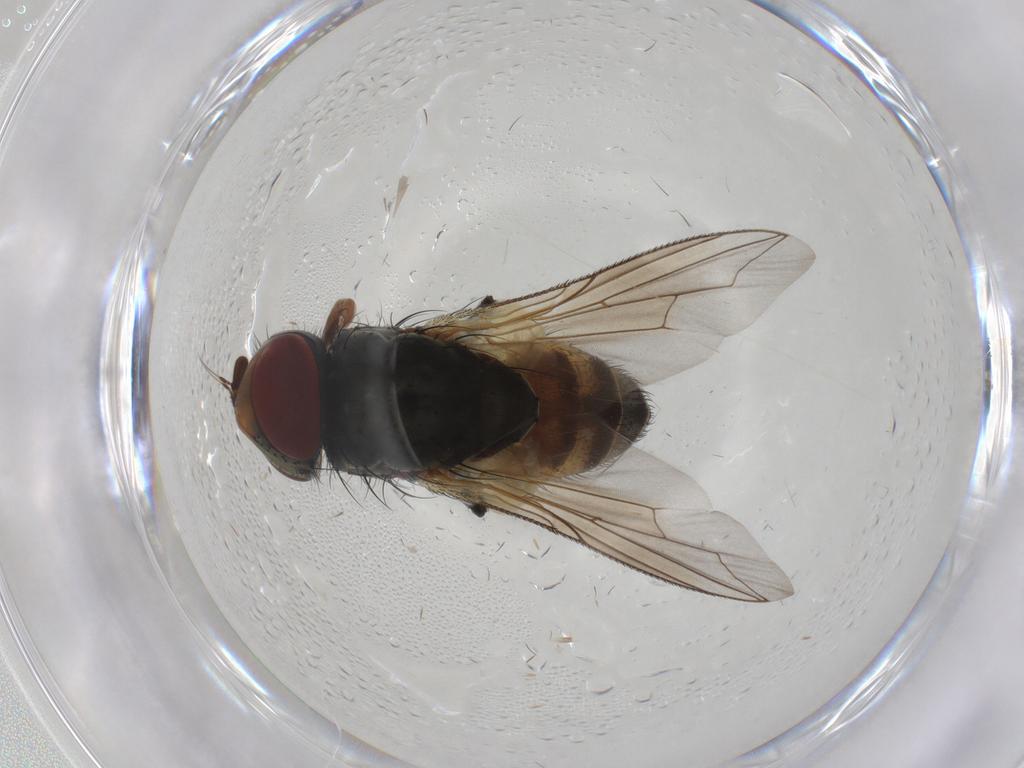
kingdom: Animalia
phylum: Arthropoda
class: Insecta
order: Diptera
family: Sarcophagidae
